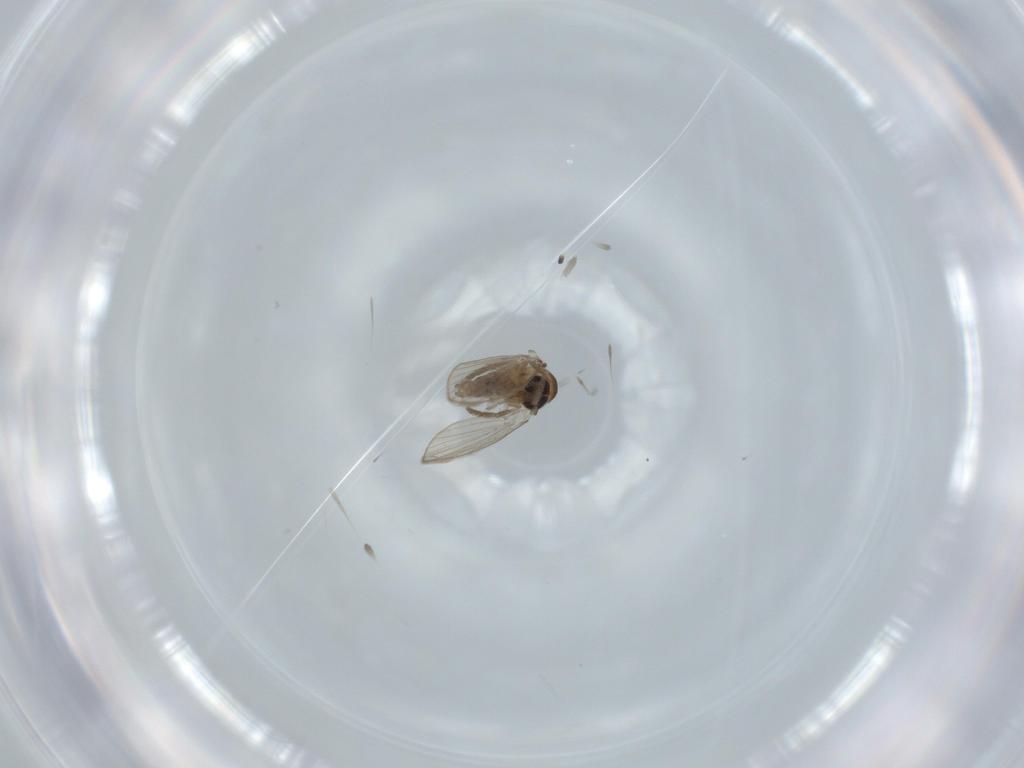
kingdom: Animalia
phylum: Arthropoda
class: Insecta
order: Diptera
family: Psychodidae
